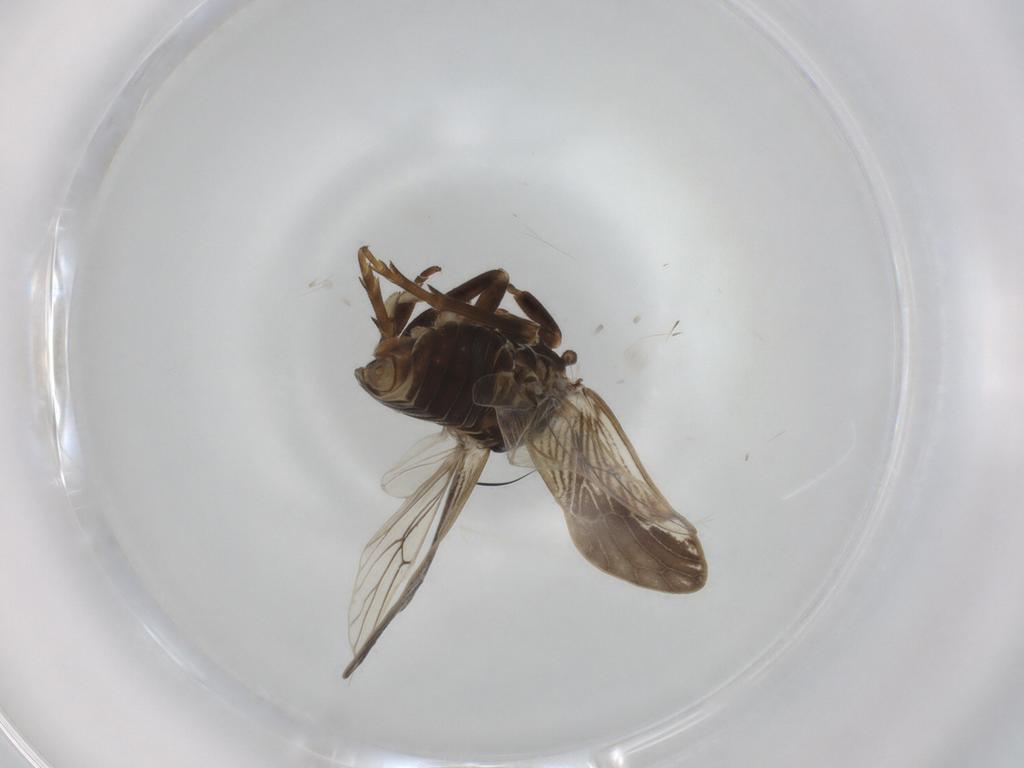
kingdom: Animalia
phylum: Arthropoda
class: Insecta
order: Hemiptera
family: Delphacidae
